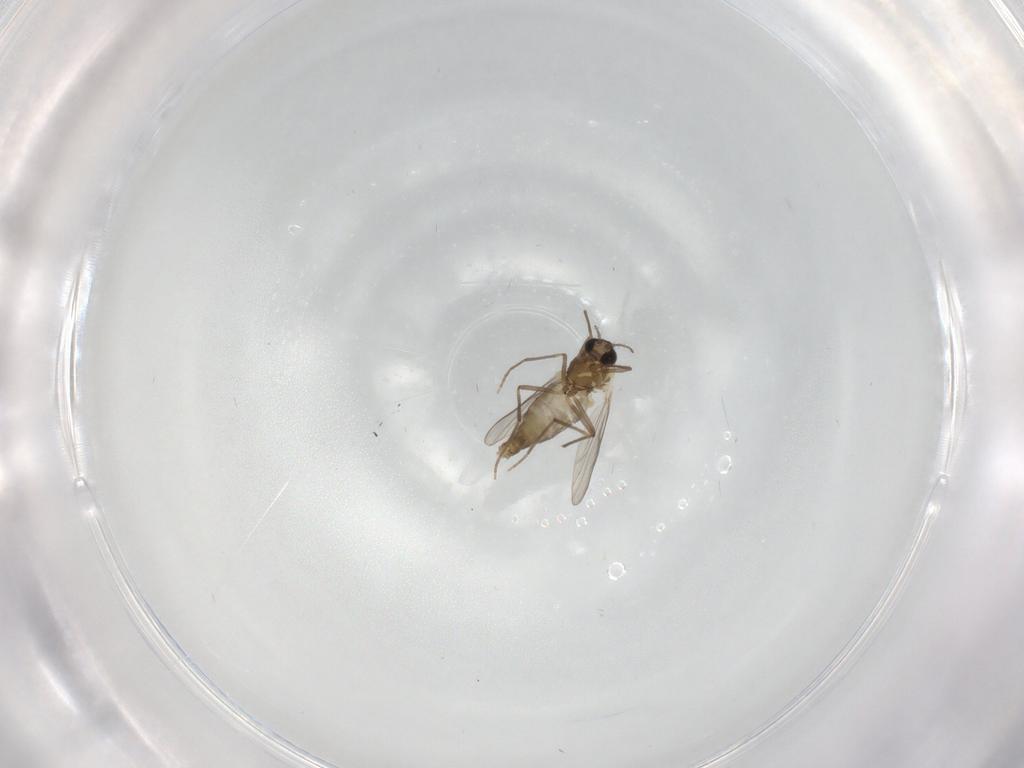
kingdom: Animalia
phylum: Arthropoda
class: Insecta
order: Diptera
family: Chironomidae
